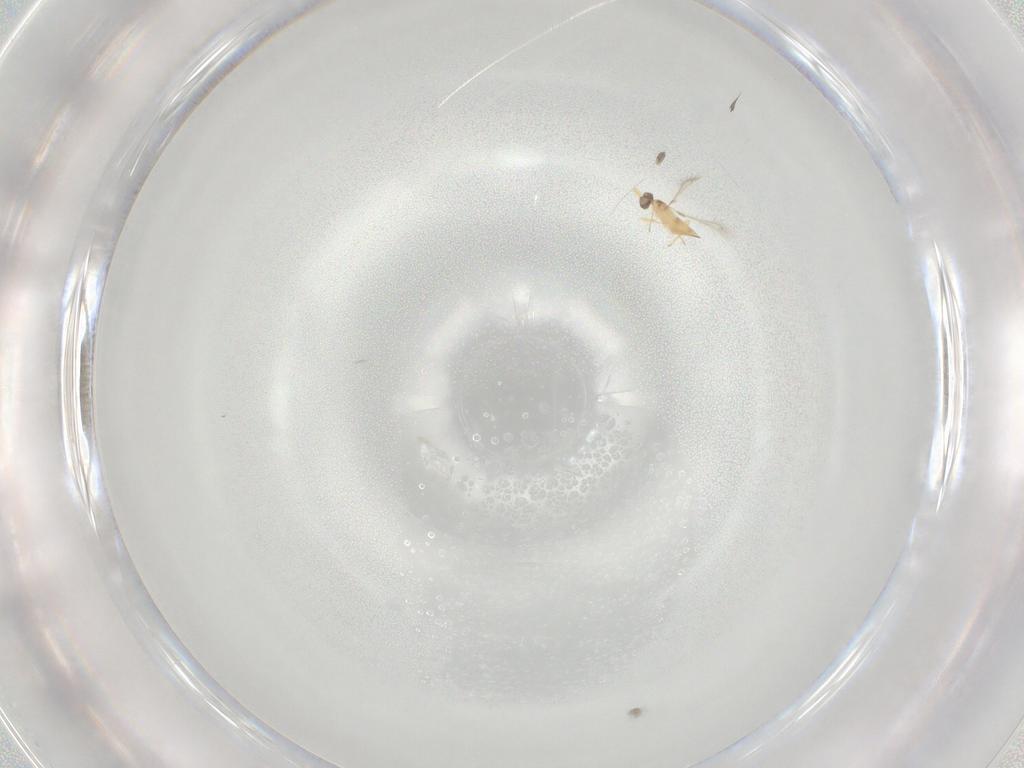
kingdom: Animalia
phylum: Arthropoda
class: Insecta
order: Hymenoptera
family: Mymaridae
